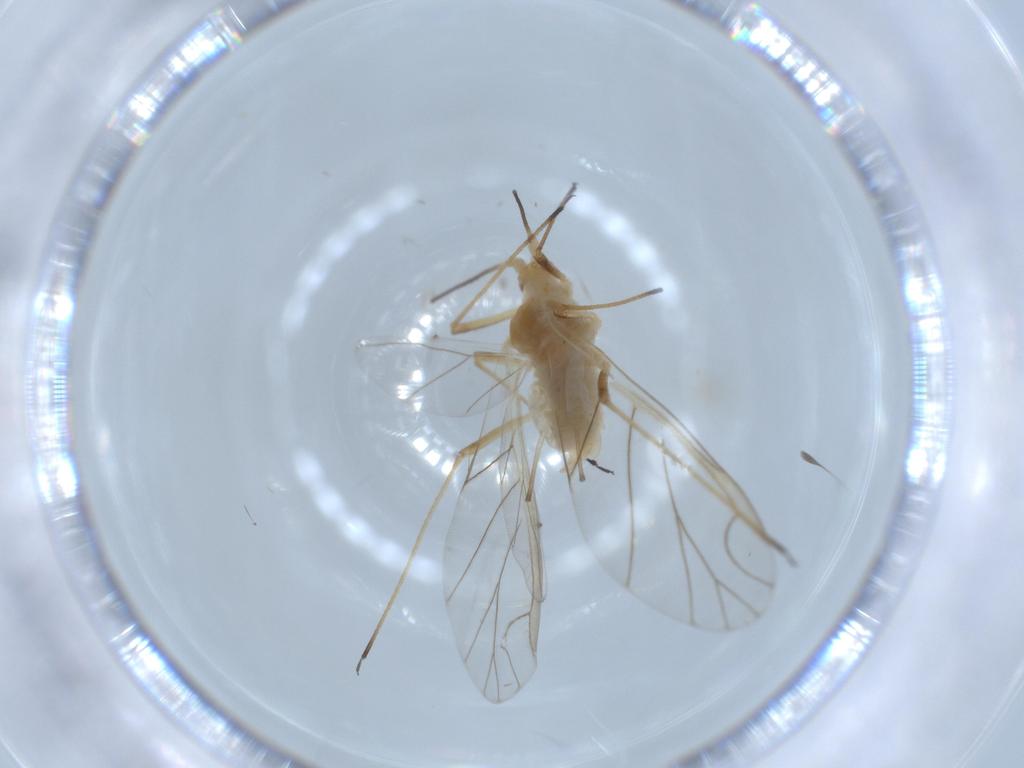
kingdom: Animalia
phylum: Arthropoda
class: Insecta
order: Hemiptera
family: Aphididae
